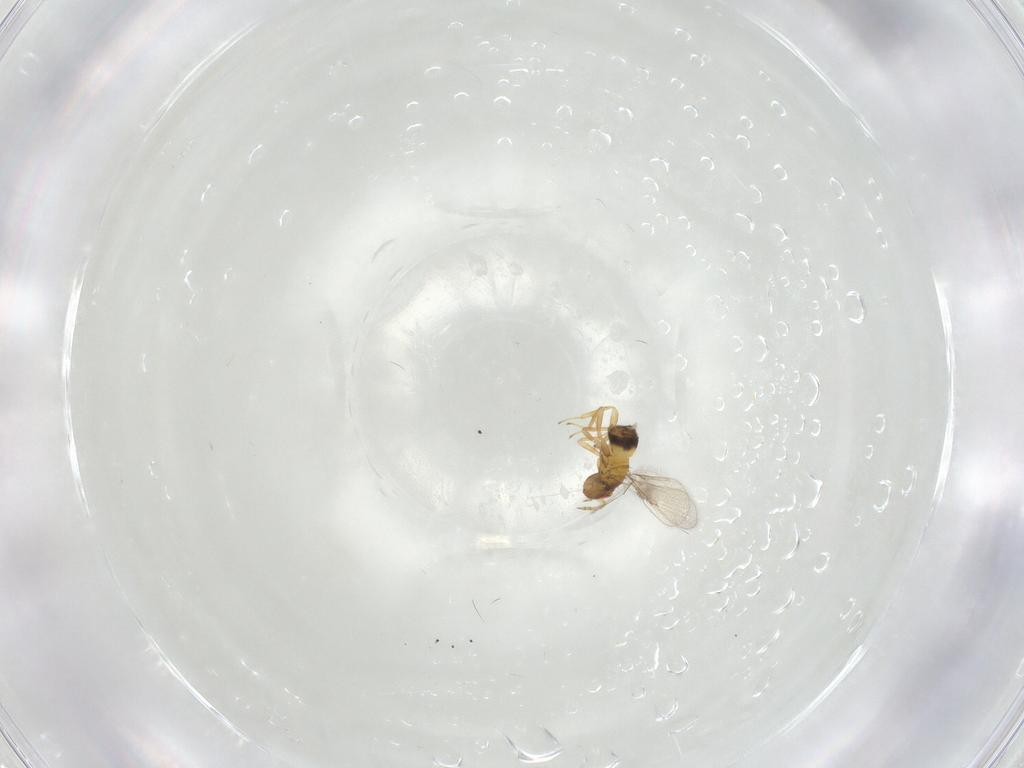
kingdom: Animalia
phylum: Arthropoda
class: Insecta
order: Hymenoptera
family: Trichogrammatidae
